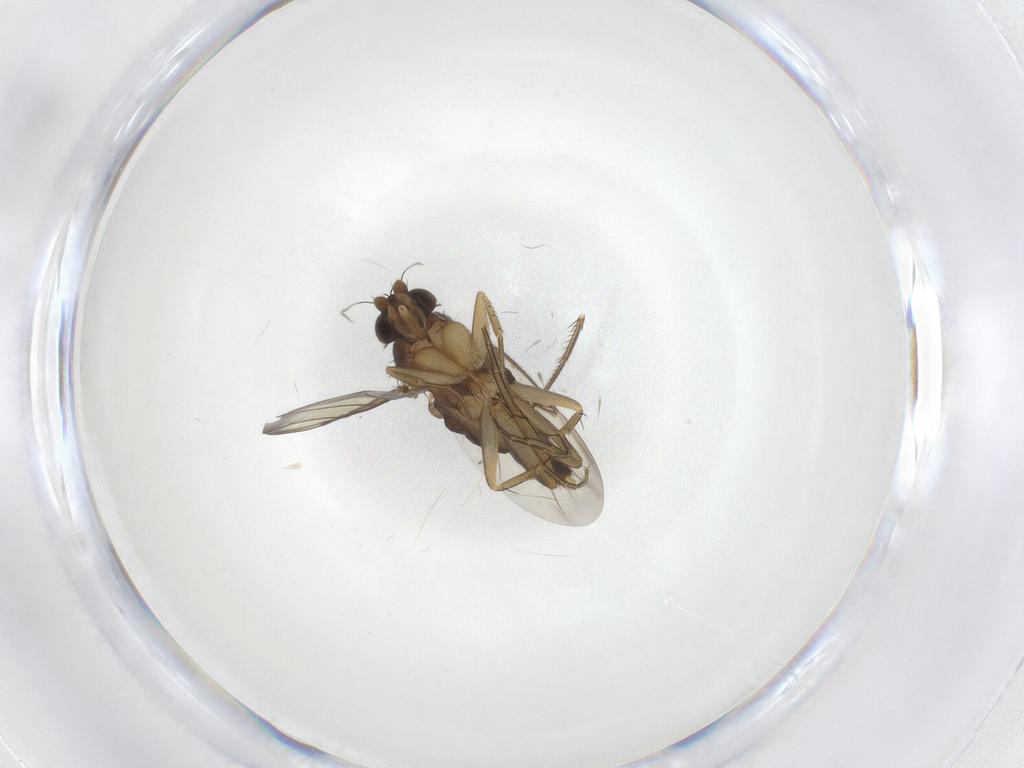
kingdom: Animalia
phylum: Arthropoda
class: Insecta
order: Diptera
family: Phoridae
